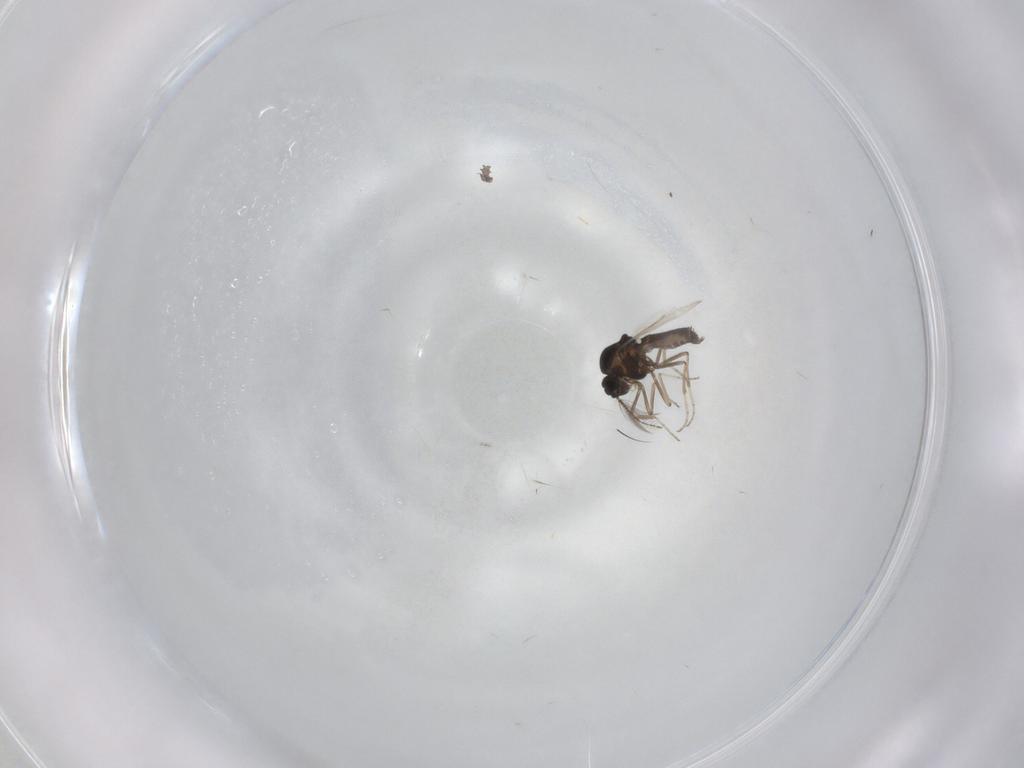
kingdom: Animalia
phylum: Arthropoda
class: Insecta
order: Diptera
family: Ceratopogonidae
